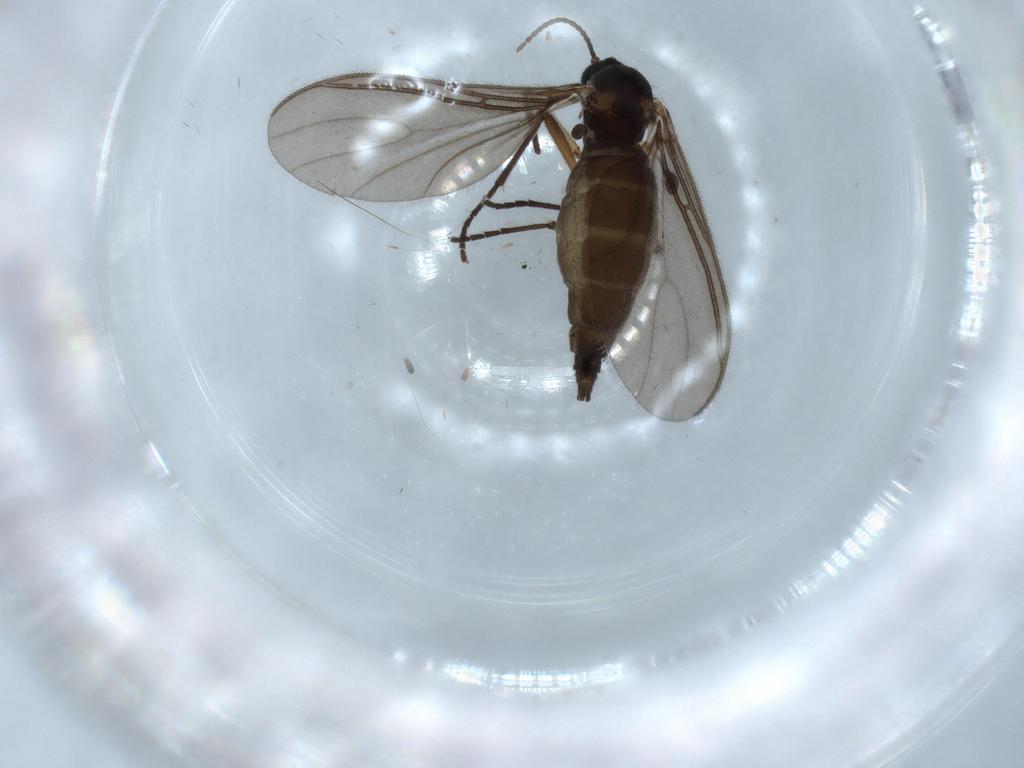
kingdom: Animalia
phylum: Arthropoda
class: Insecta
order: Diptera
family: Sciaridae
